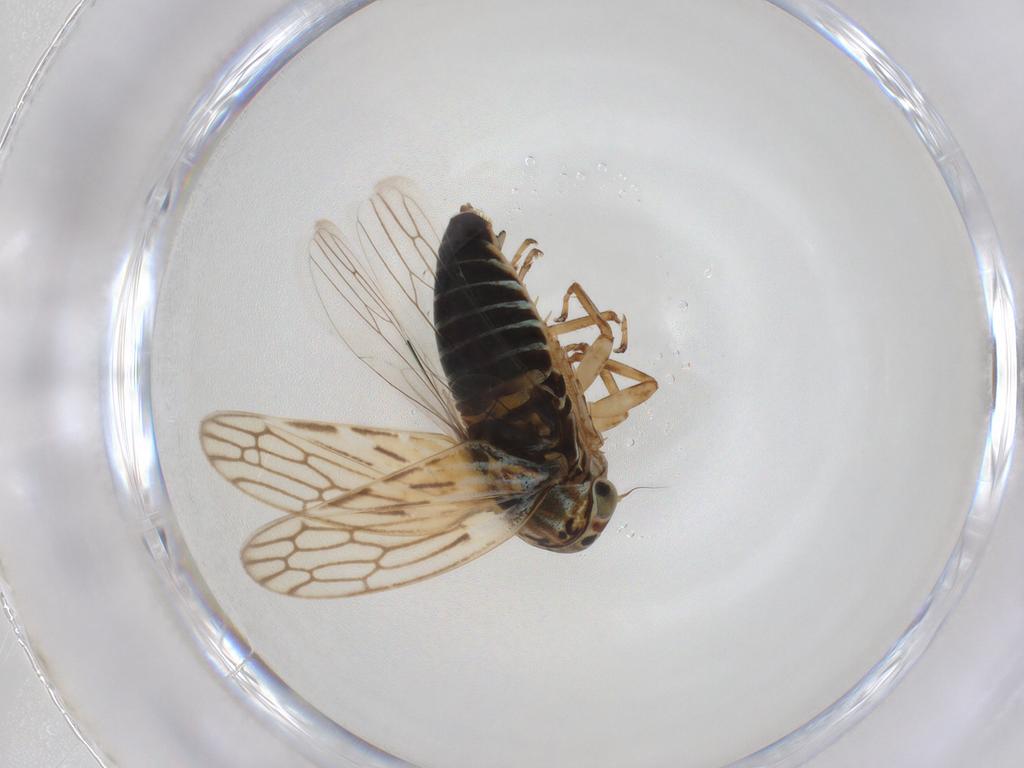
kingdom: Animalia
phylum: Arthropoda
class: Insecta
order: Hemiptera
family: Cicadellidae
